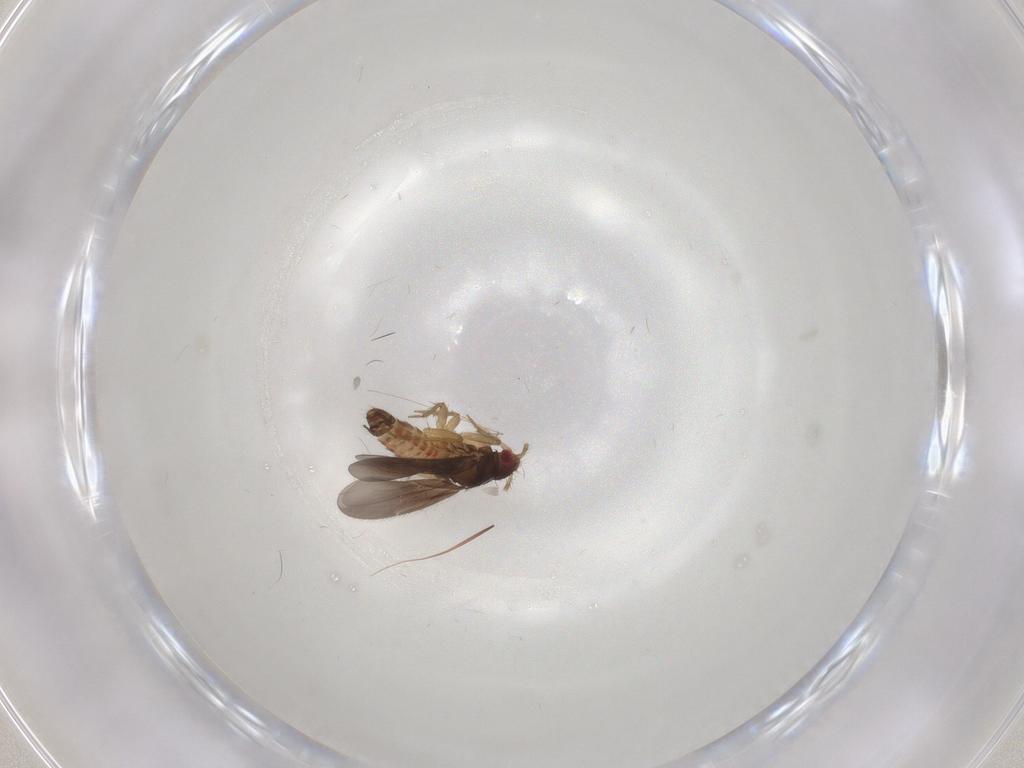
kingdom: Animalia
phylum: Arthropoda
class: Insecta
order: Hemiptera
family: Ceratocombidae
